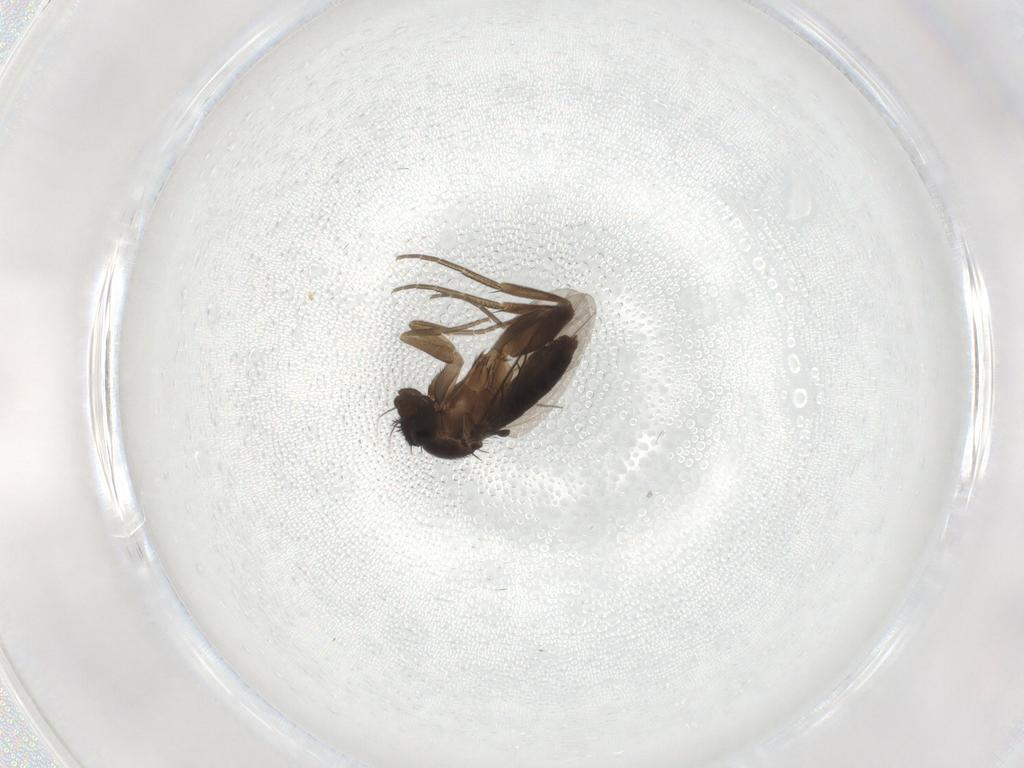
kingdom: Animalia
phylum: Arthropoda
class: Insecta
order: Diptera
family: Phoridae
